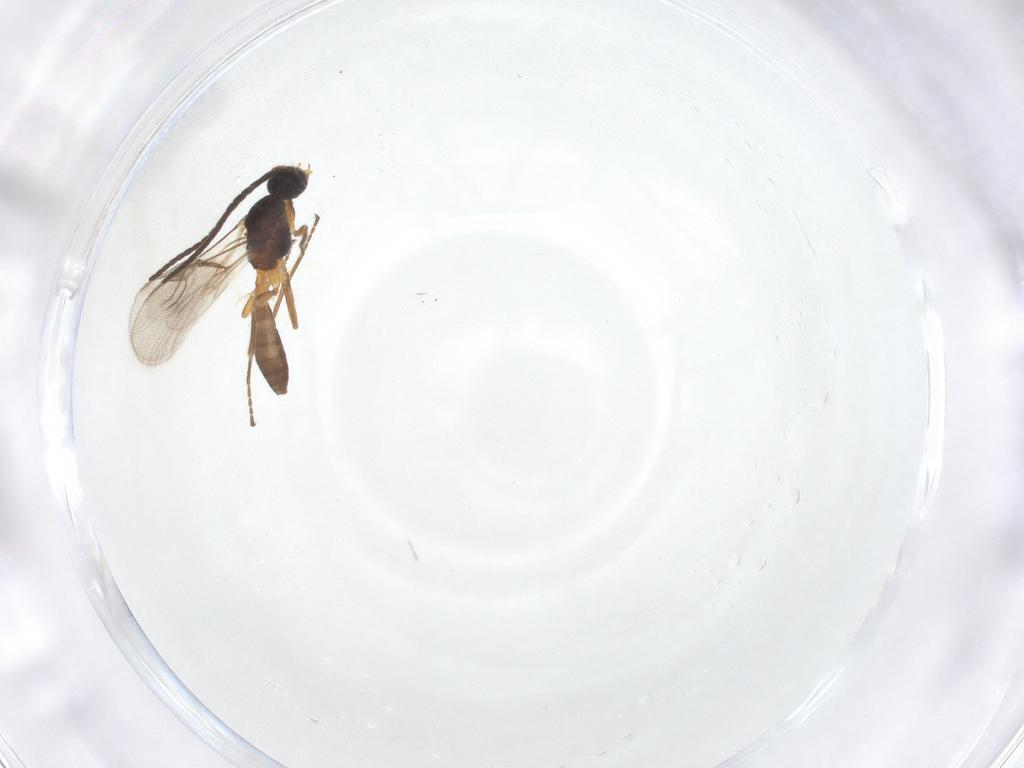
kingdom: Animalia
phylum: Arthropoda
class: Insecta
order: Hymenoptera
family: Braconidae
